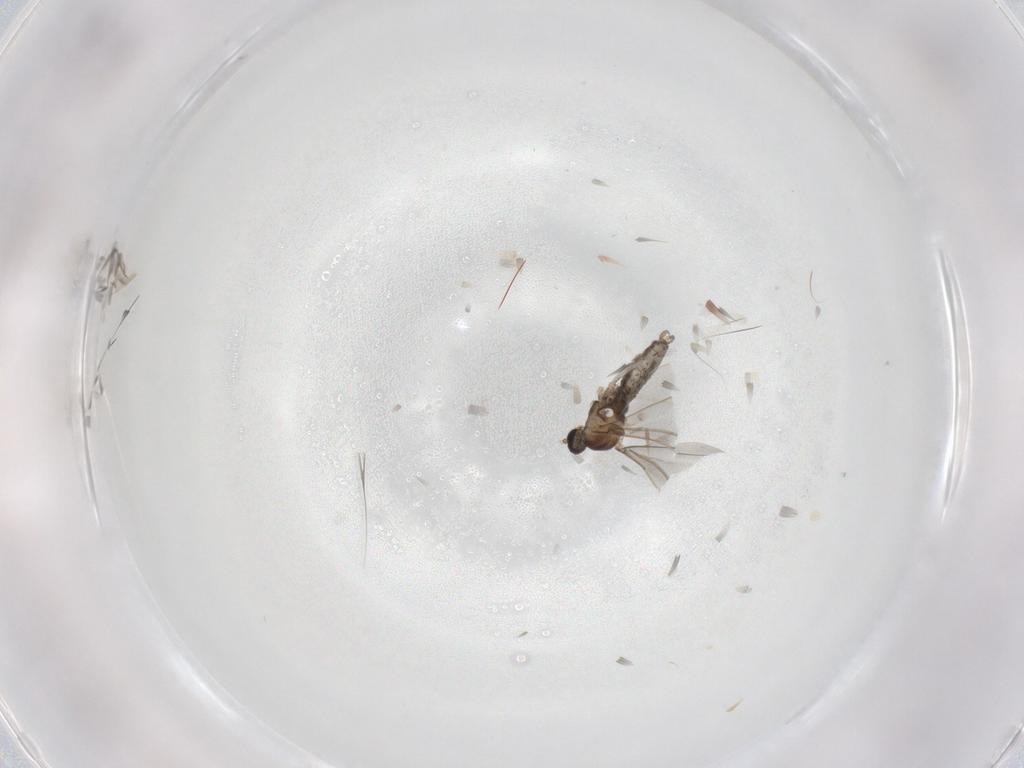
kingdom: Animalia
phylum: Arthropoda
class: Insecta
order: Diptera
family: Cecidomyiidae
